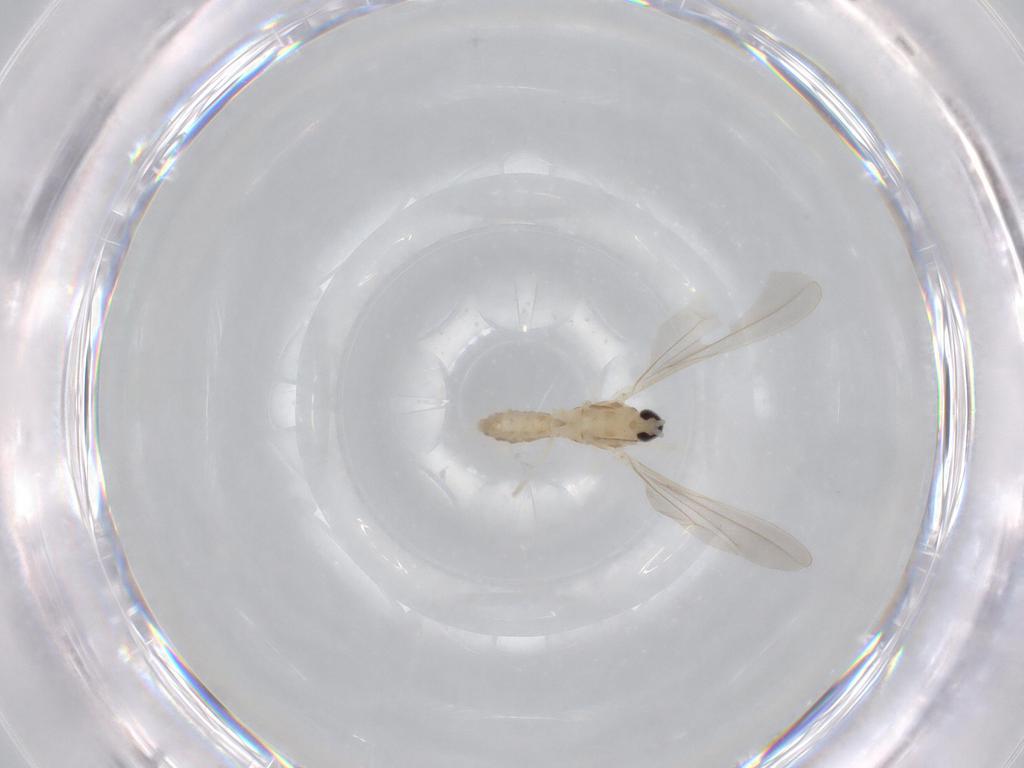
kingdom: Animalia
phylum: Arthropoda
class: Insecta
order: Diptera
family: Cecidomyiidae
